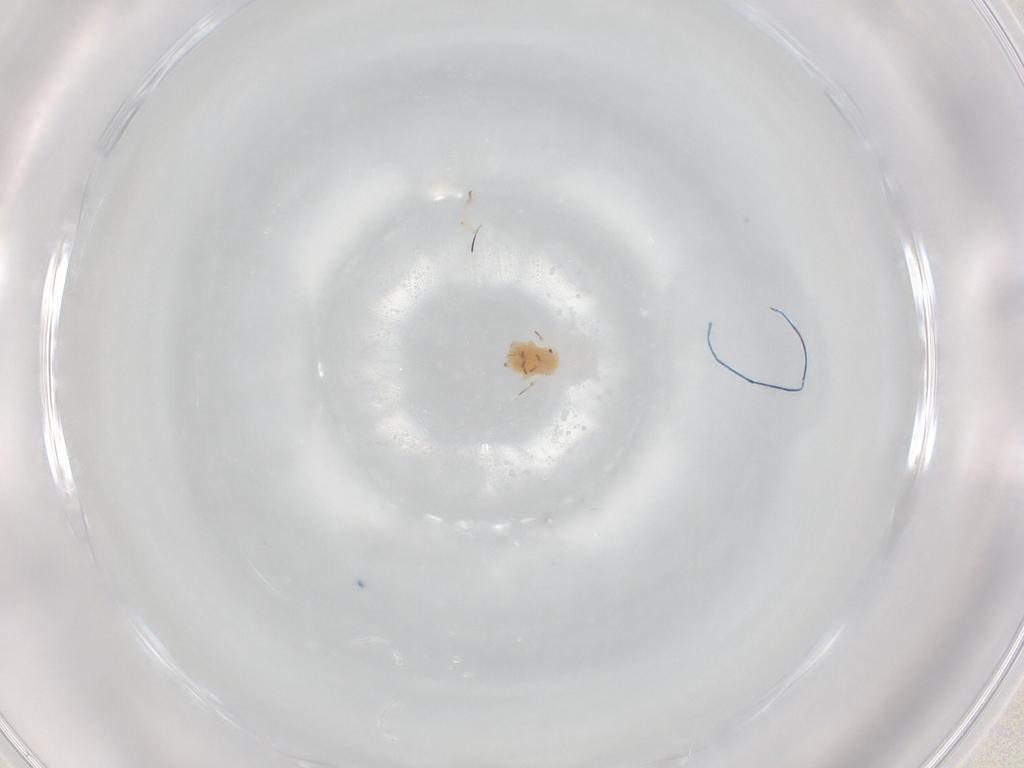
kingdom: Animalia
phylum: Arthropoda
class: Insecta
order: Hemiptera
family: Aphididae
